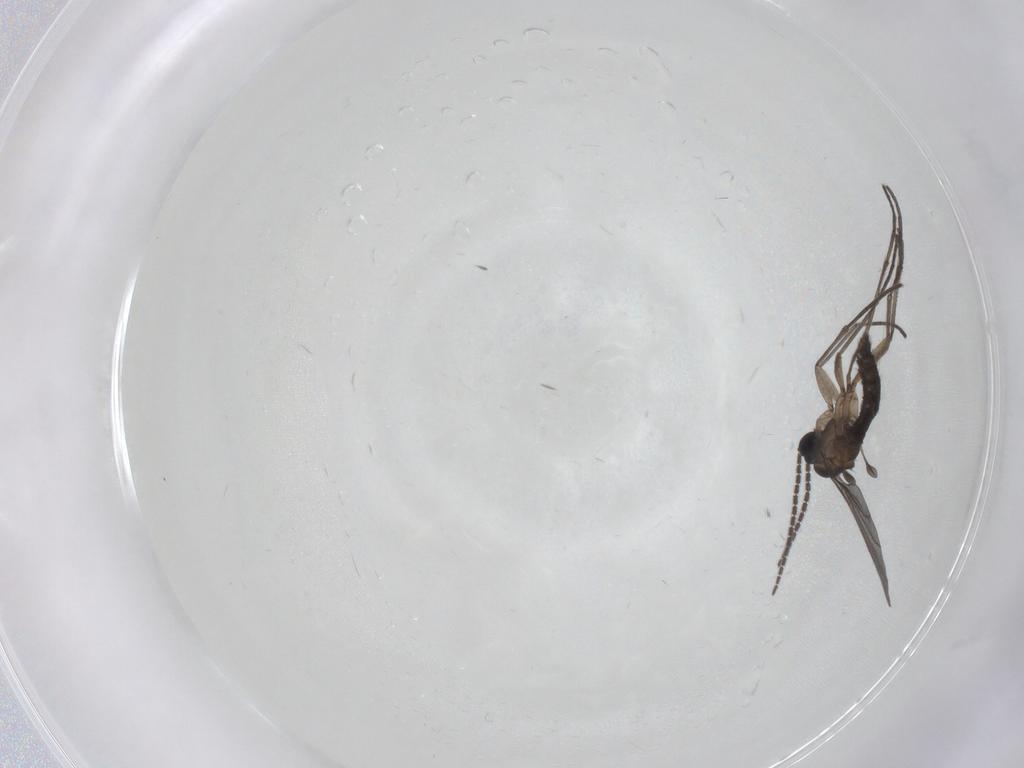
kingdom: Animalia
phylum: Arthropoda
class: Insecta
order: Diptera
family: Sciaridae
